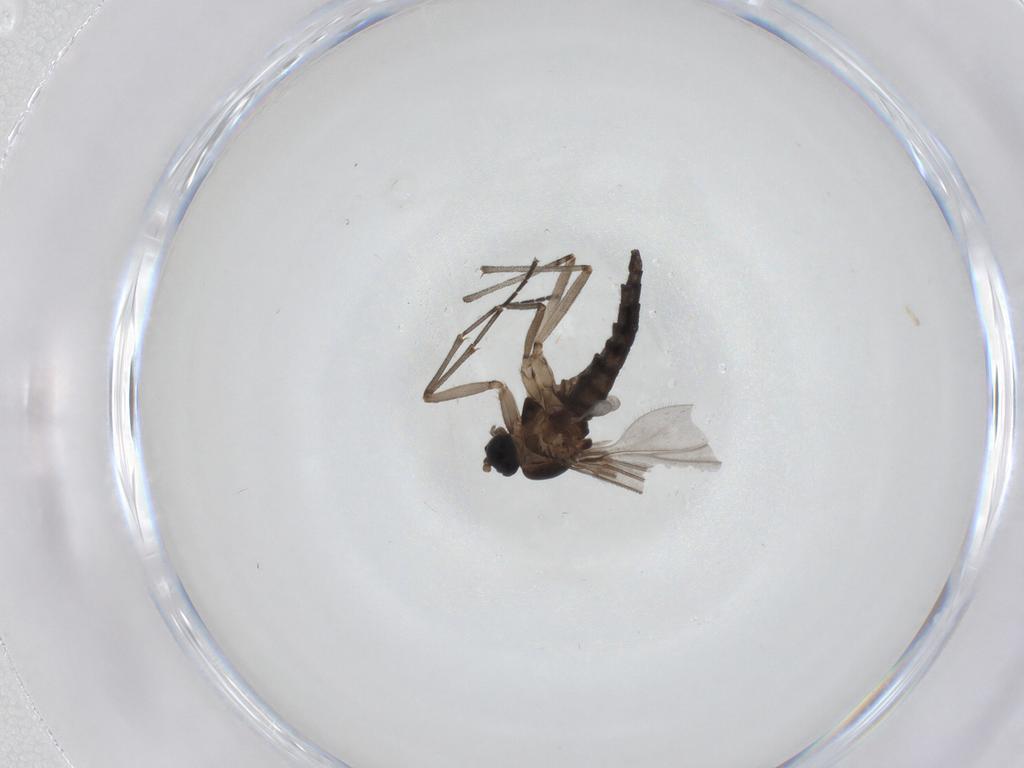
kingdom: Animalia
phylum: Arthropoda
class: Insecta
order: Diptera
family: Sciaridae
